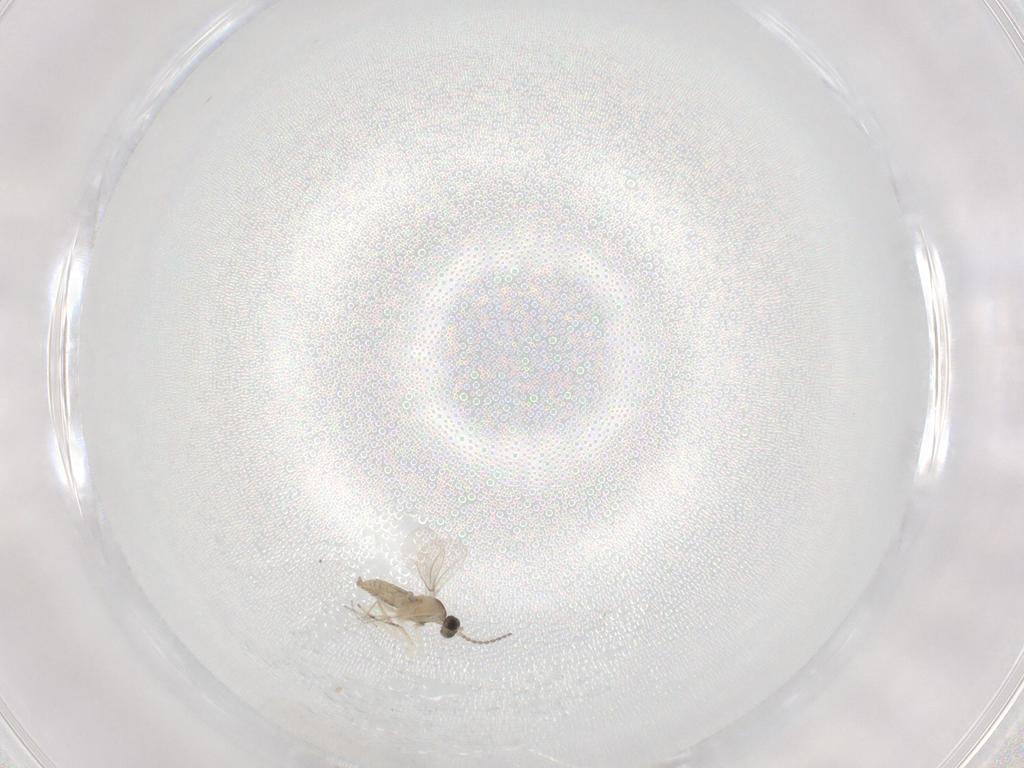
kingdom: Animalia
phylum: Arthropoda
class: Insecta
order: Diptera
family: Cecidomyiidae
